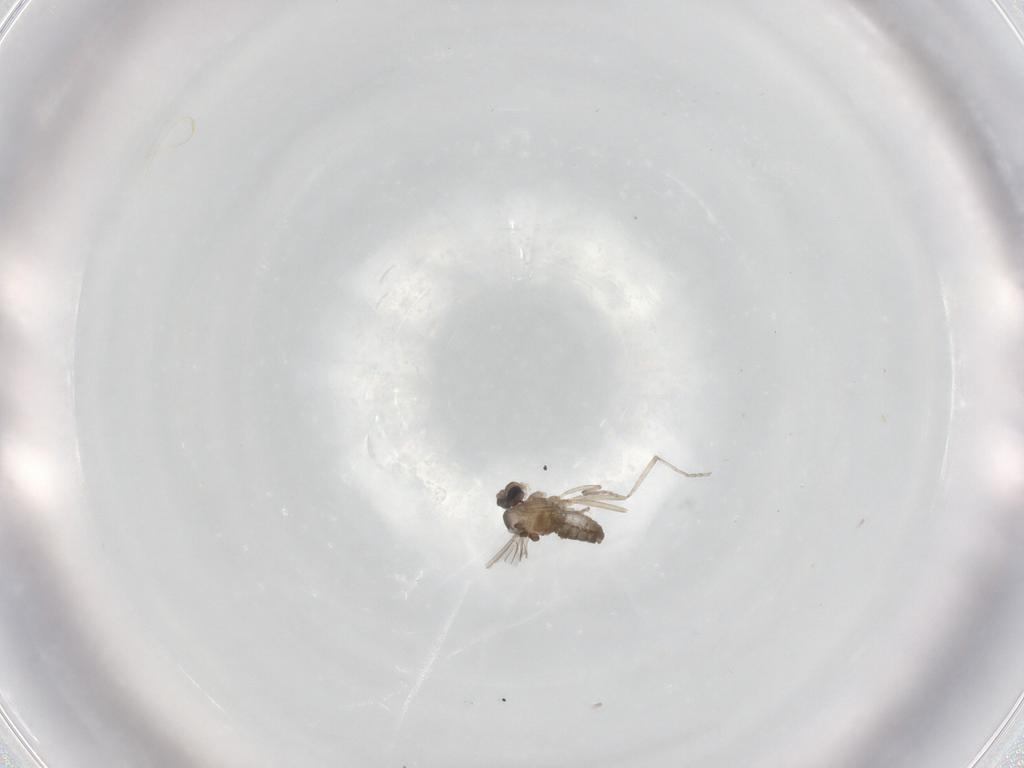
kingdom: Animalia
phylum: Arthropoda
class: Insecta
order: Diptera
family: Cecidomyiidae
